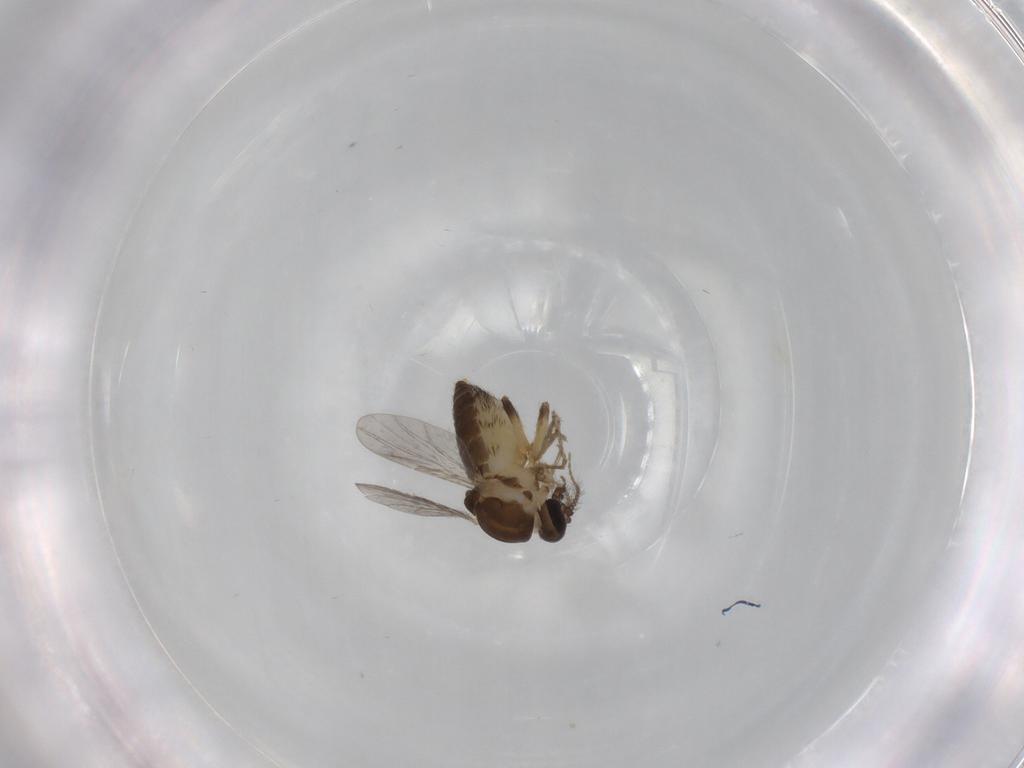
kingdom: Animalia
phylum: Arthropoda
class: Insecta
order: Diptera
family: Ceratopogonidae
